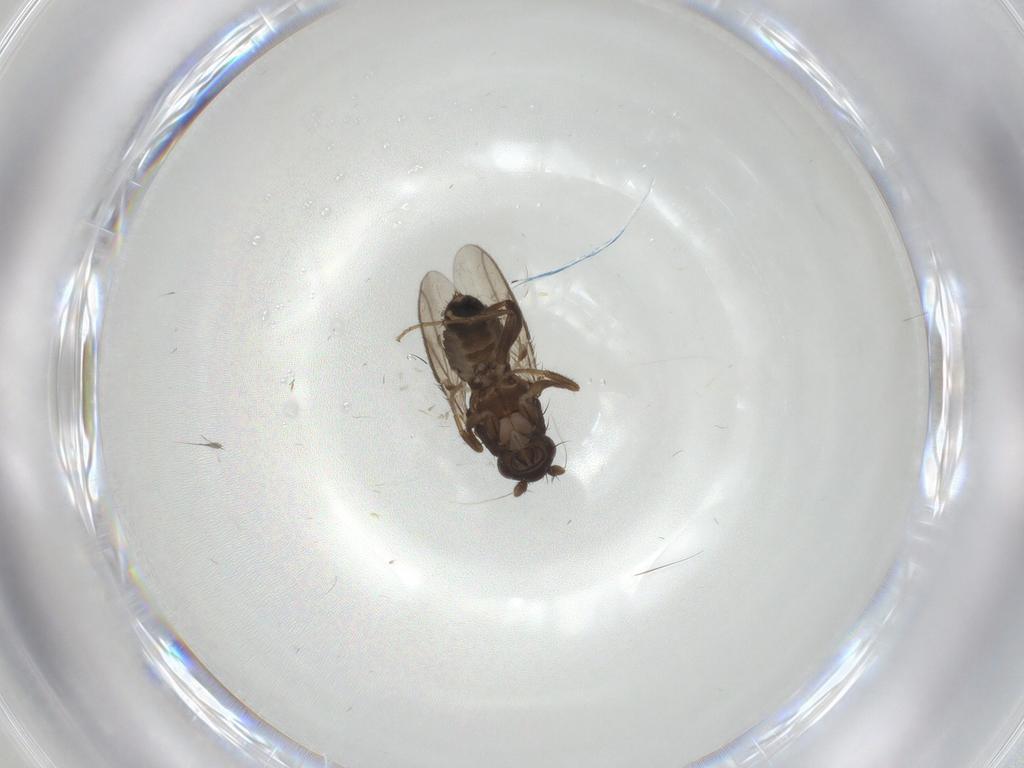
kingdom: Animalia
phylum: Arthropoda
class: Insecta
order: Diptera
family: Sphaeroceridae
